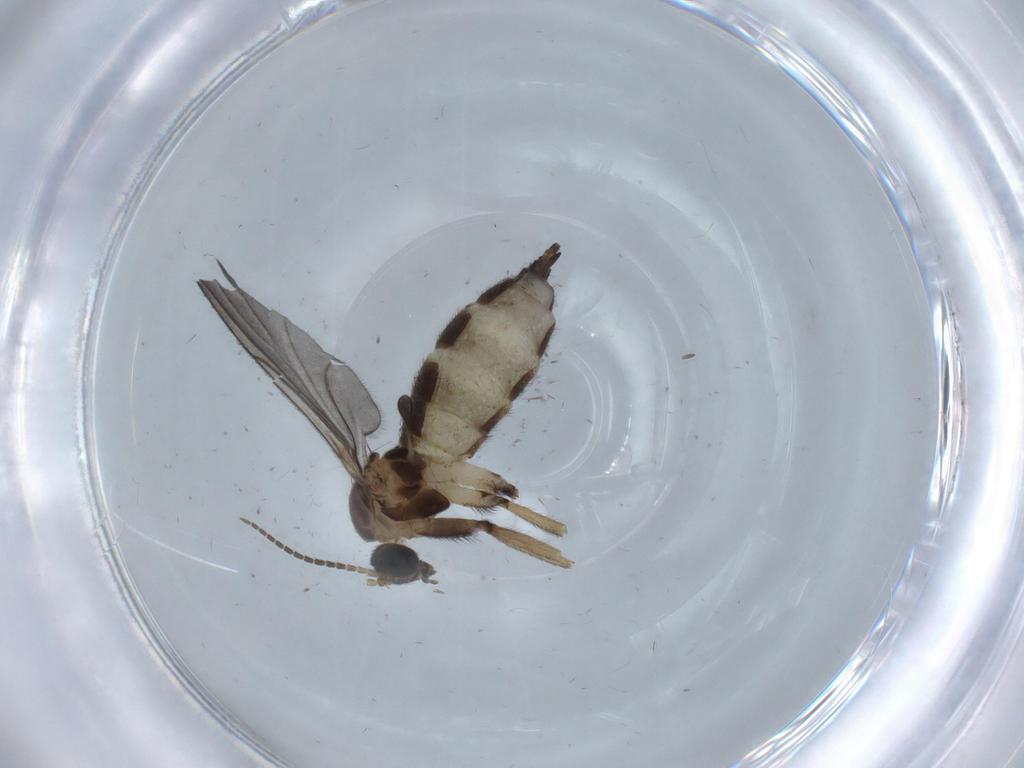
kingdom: Animalia
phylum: Arthropoda
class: Insecta
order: Diptera
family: Sciaridae
